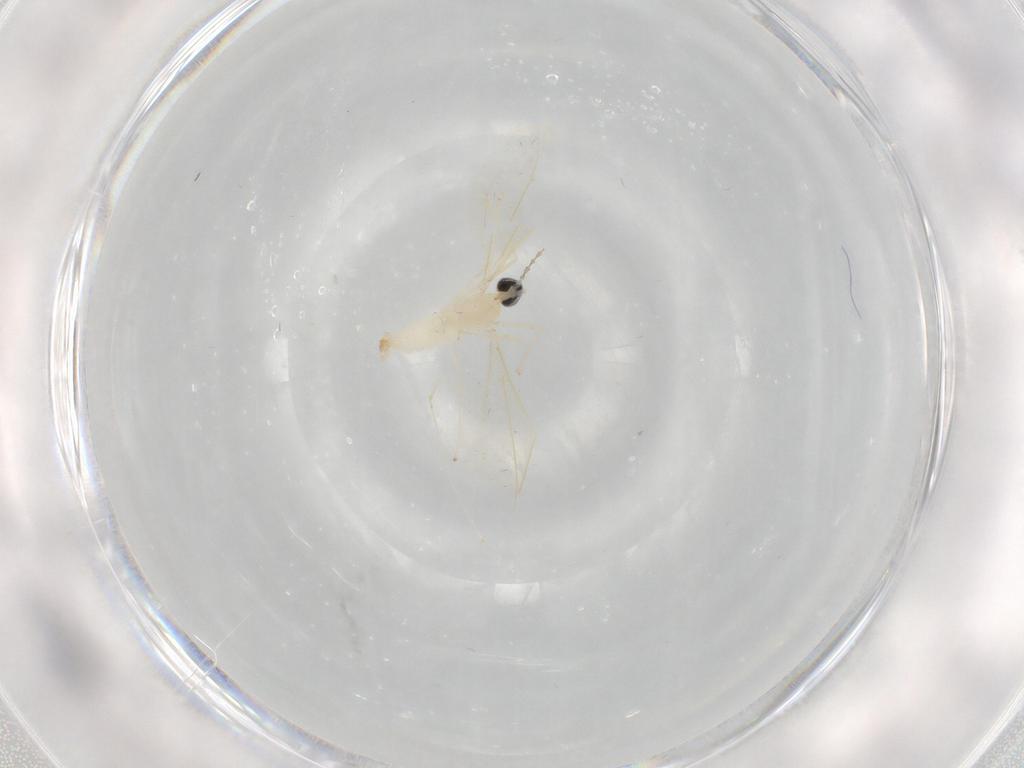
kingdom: Animalia
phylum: Arthropoda
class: Insecta
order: Diptera
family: Cecidomyiidae
